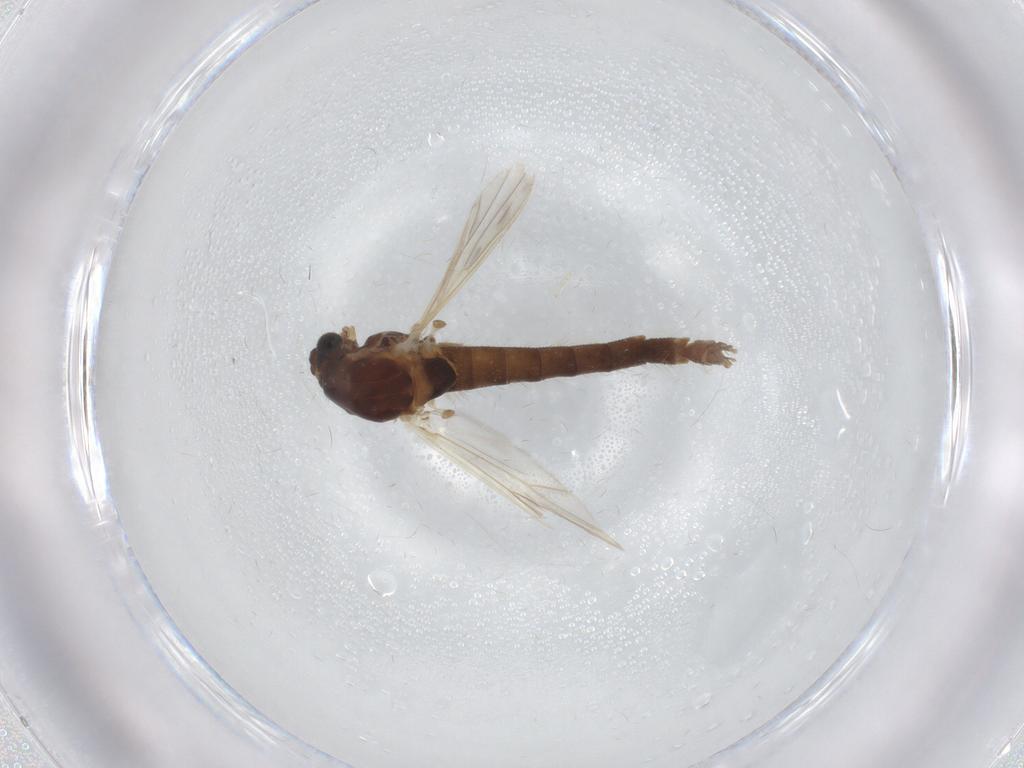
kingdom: Animalia
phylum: Arthropoda
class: Insecta
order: Diptera
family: Chironomidae
